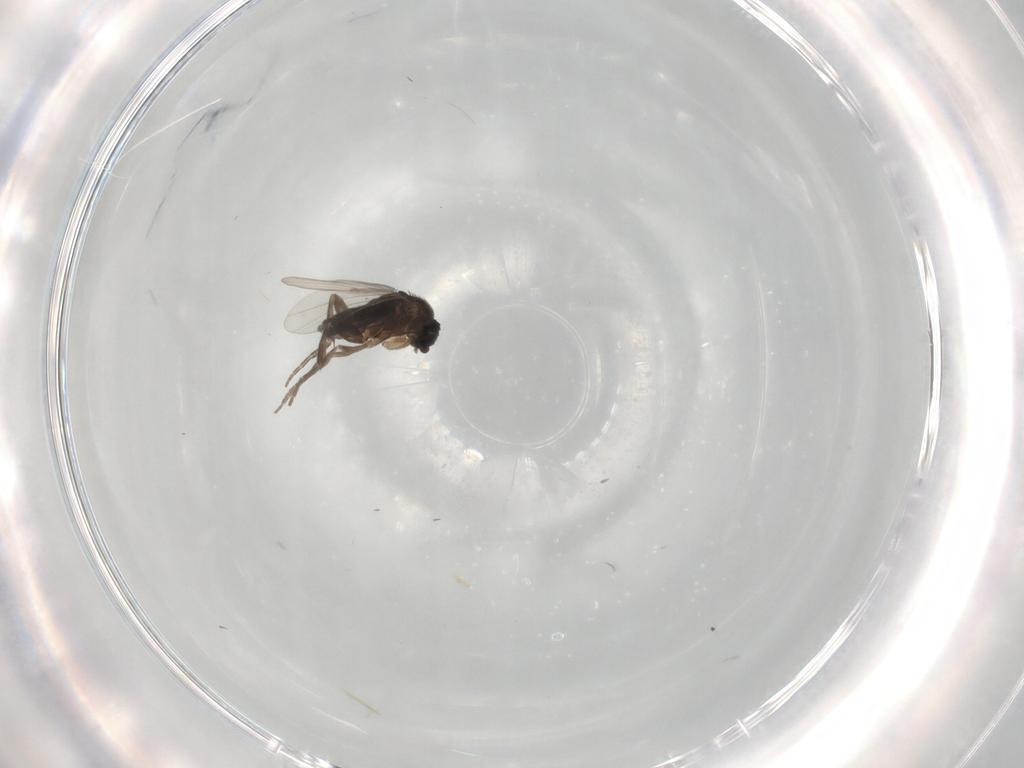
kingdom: Animalia
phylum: Arthropoda
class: Insecta
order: Diptera
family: Phoridae
